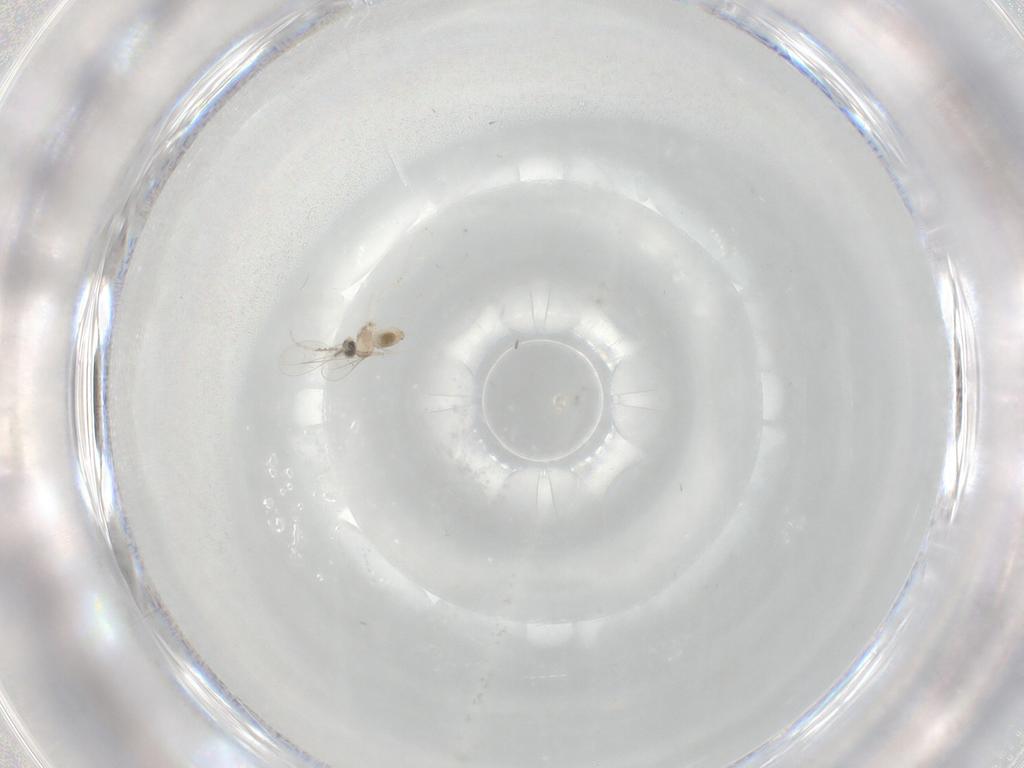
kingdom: Animalia
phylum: Arthropoda
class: Insecta
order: Diptera
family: Cecidomyiidae
